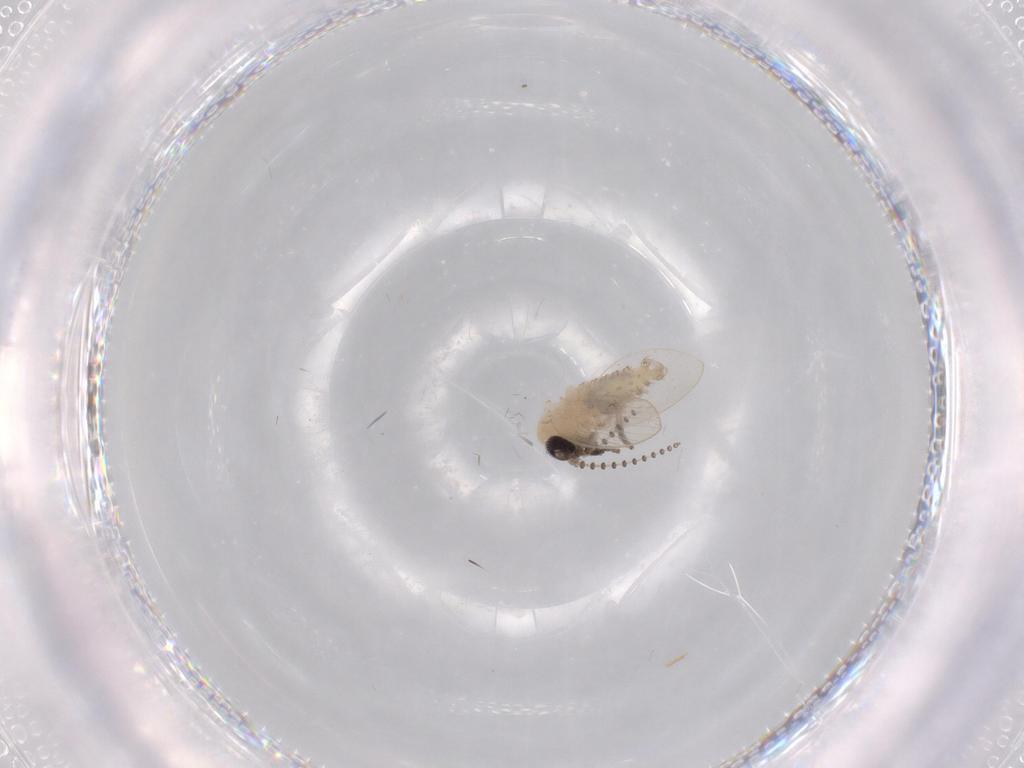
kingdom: Animalia
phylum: Arthropoda
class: Insecta
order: Diptera
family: Psychodidae
